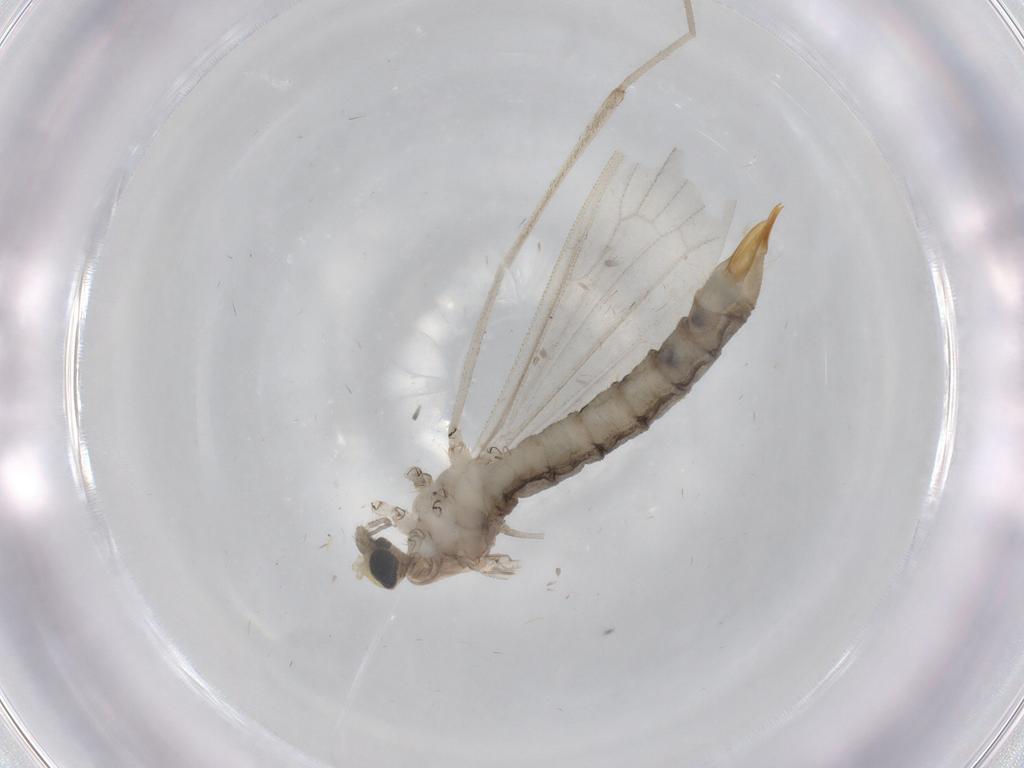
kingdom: Animalia
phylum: Arthropoda
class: Insecta
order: Diptera
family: Limoniidae
